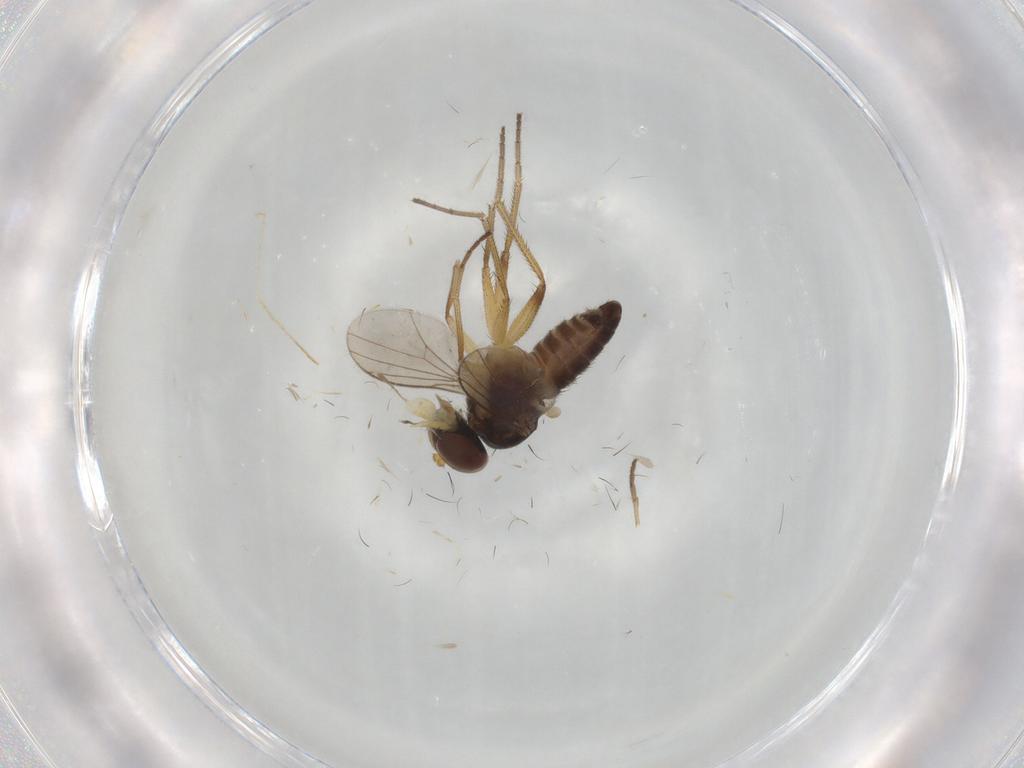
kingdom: Animalia
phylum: Arthropoda
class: Insecta
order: Diptera
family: Dolichopodidae
